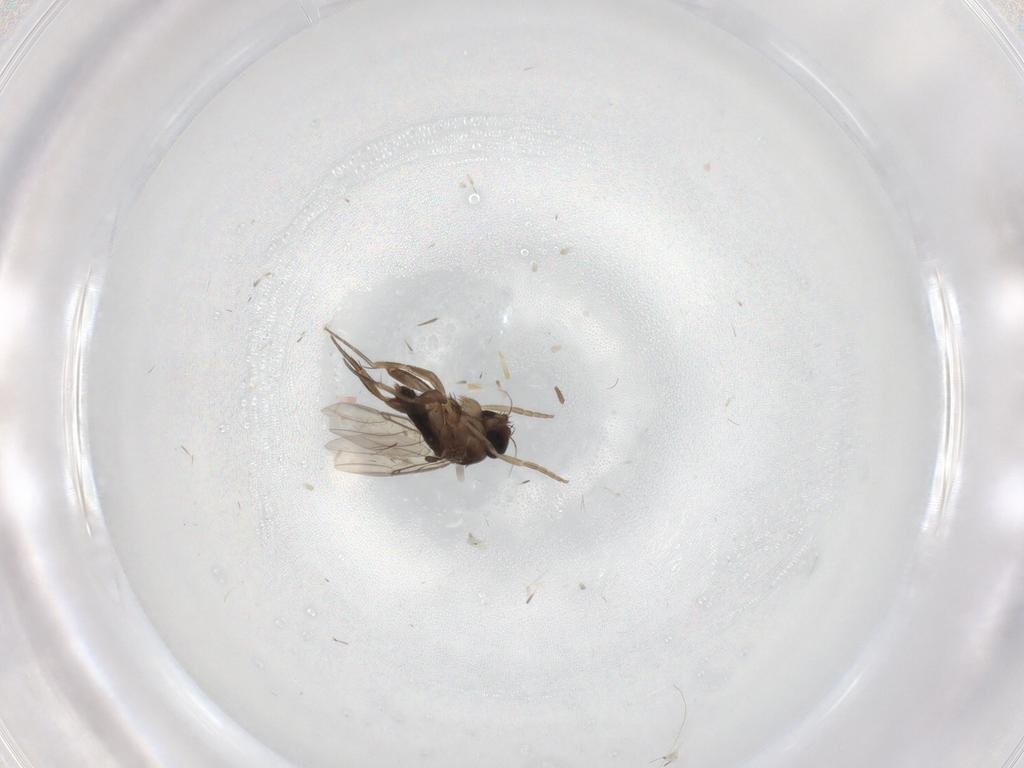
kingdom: Animalia
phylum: Arthropoda
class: Insecta
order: Diptera
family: Phoridae
